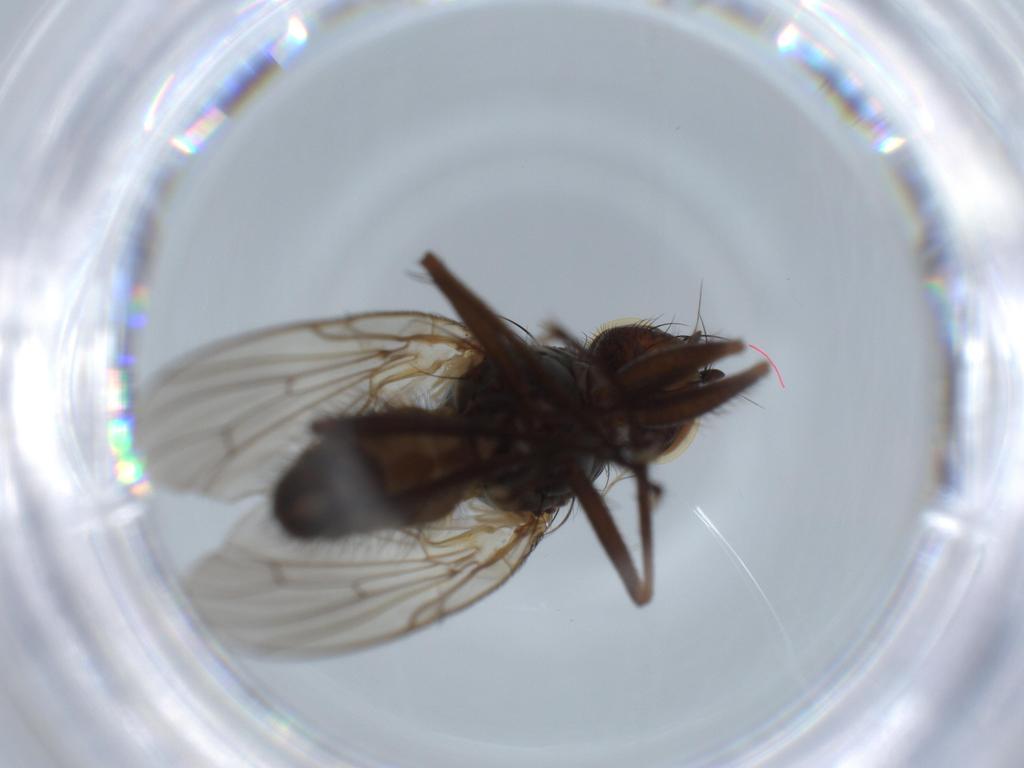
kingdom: Animalia
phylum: Arthropoda
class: Insecta
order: Diptera
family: Anthomyiidae
